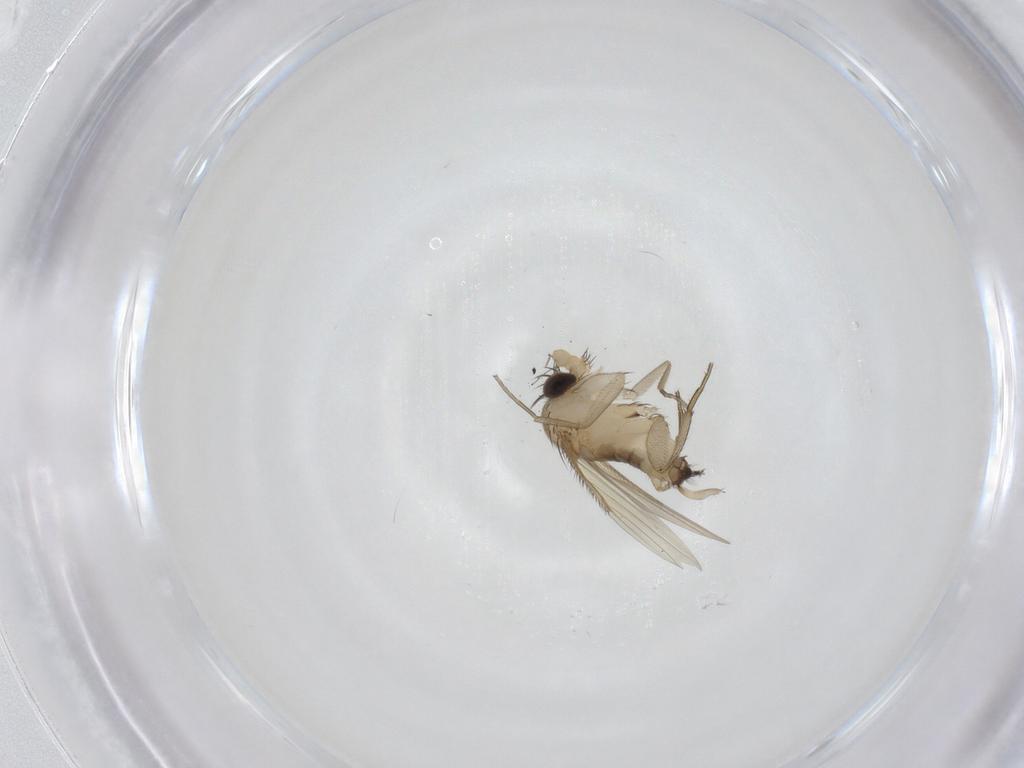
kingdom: Animalia
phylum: Arthropoda
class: Insecta
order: Diptera
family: Phoridae
